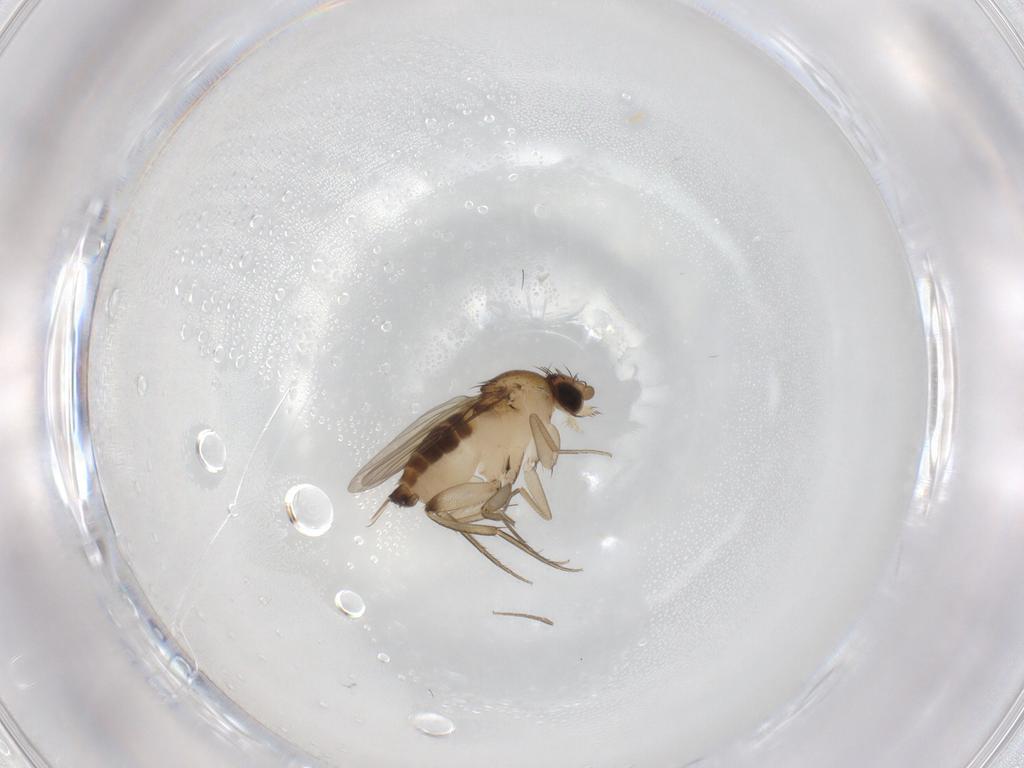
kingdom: Animalia
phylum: Arthropoda
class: Insecta
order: Diptera
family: Phoridae
